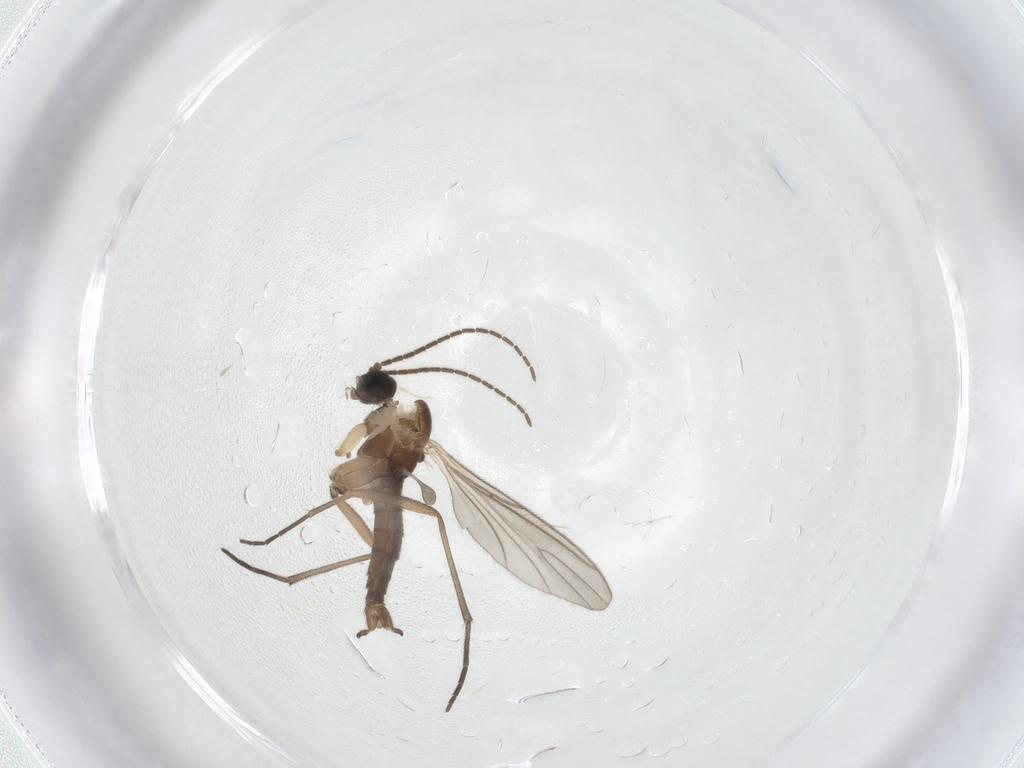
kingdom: Animalia
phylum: Arthropoda
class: Insecta
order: Diptera
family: Sciaridae
